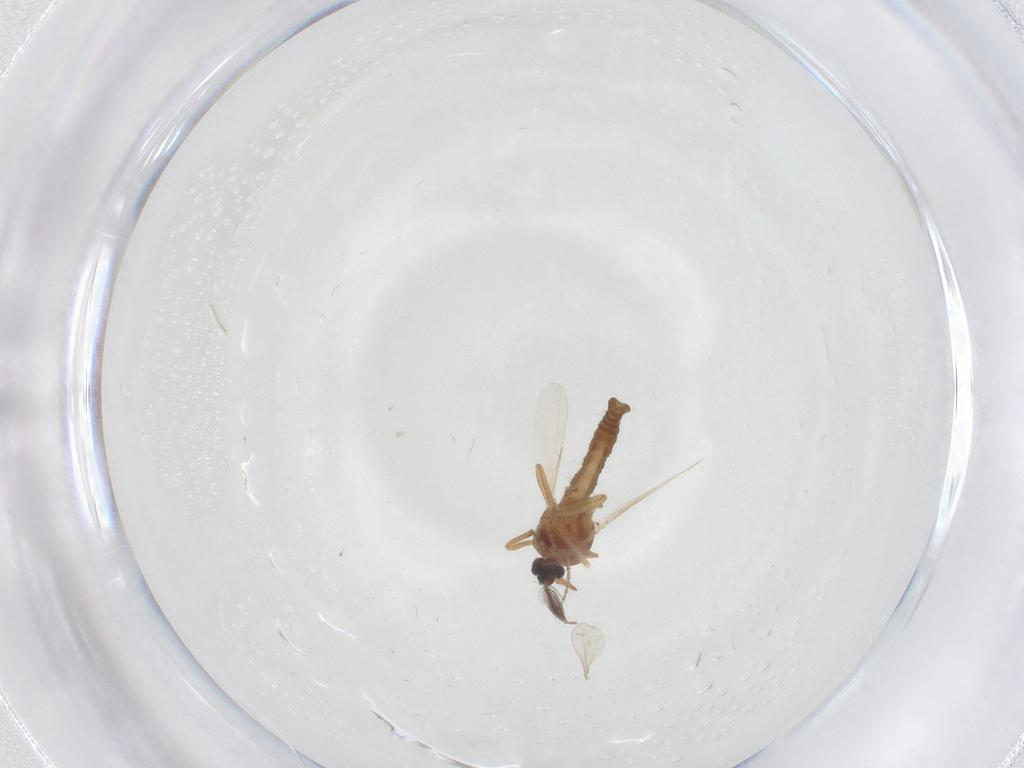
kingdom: Animalia
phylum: Arthropoda
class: Insecta
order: Diptera
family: Ceratopogonidae
